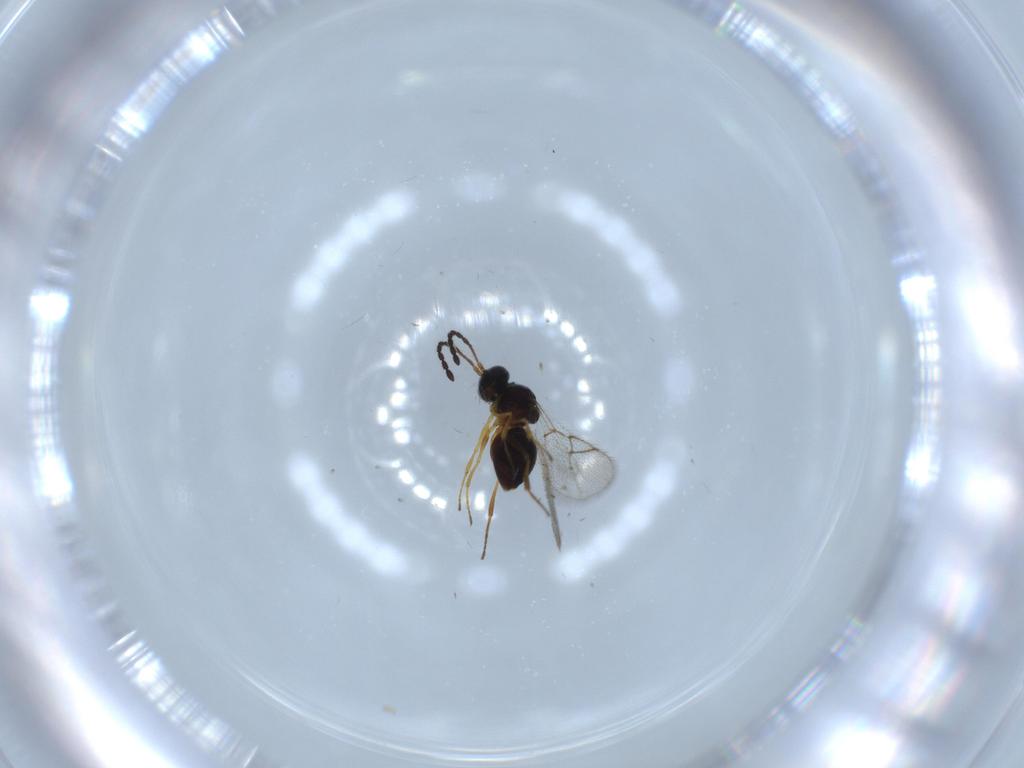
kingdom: Animalia
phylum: Arthropoda
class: Insecta
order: Hymenoptera
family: Figitidae
